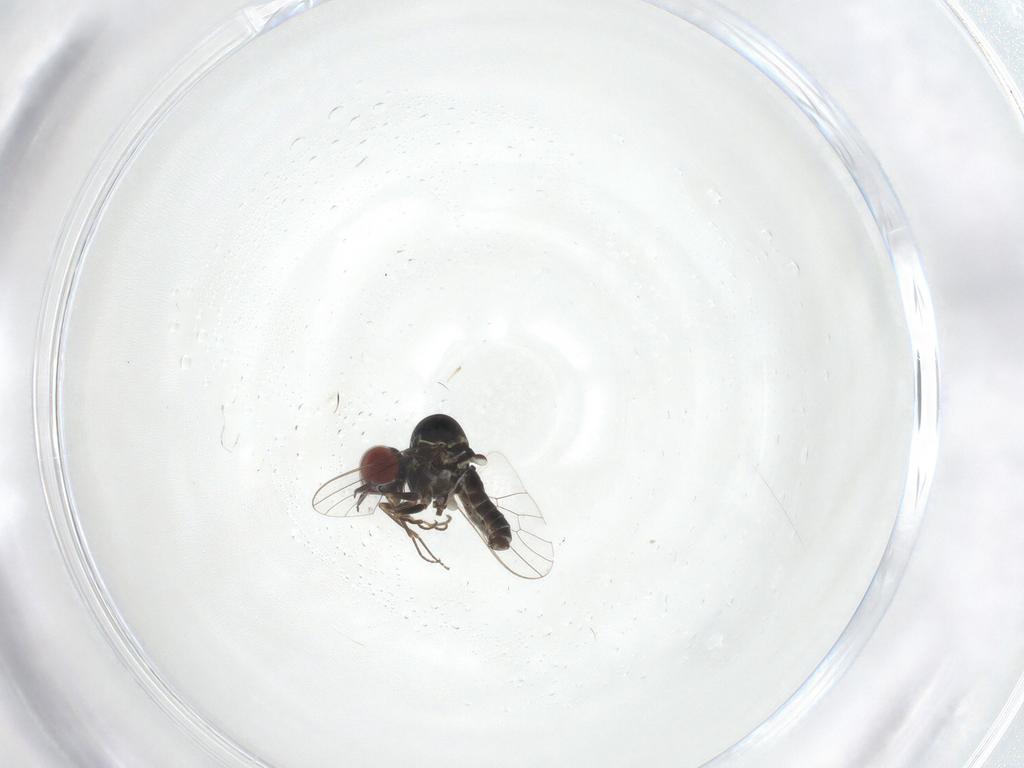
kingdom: Animalia
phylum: Arthropoda
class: Insecta
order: Diptera
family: Mythicomyiidae
